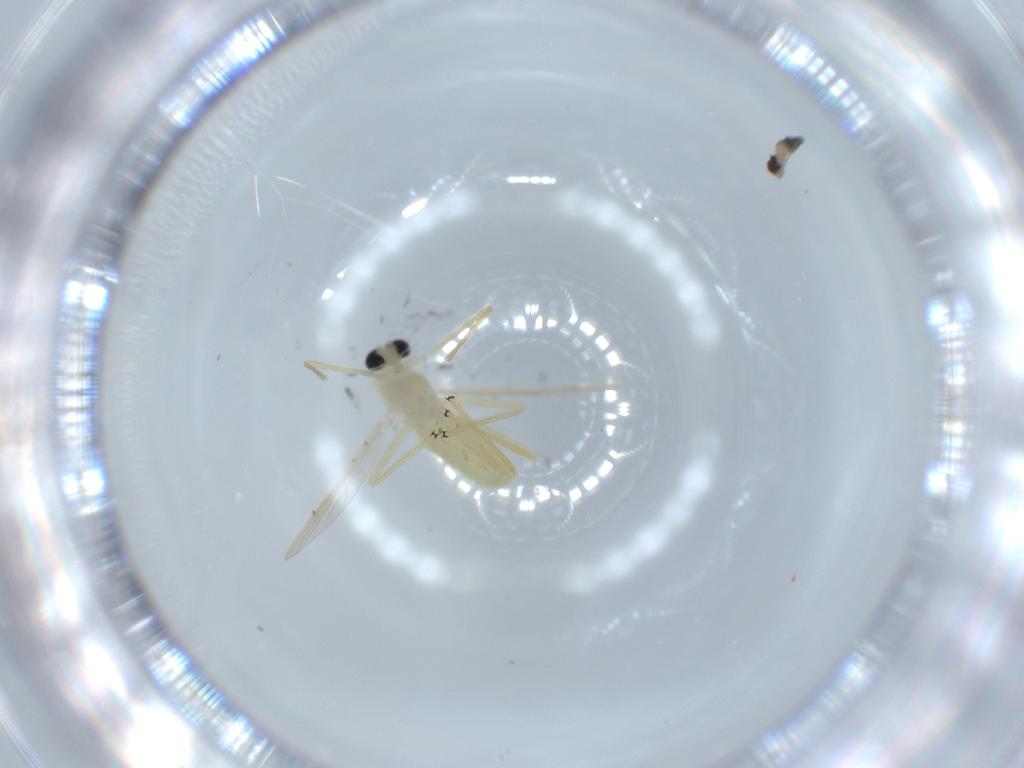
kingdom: Animalia
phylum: Arthropoda
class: Insecta
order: Diptera
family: Chironomidae
